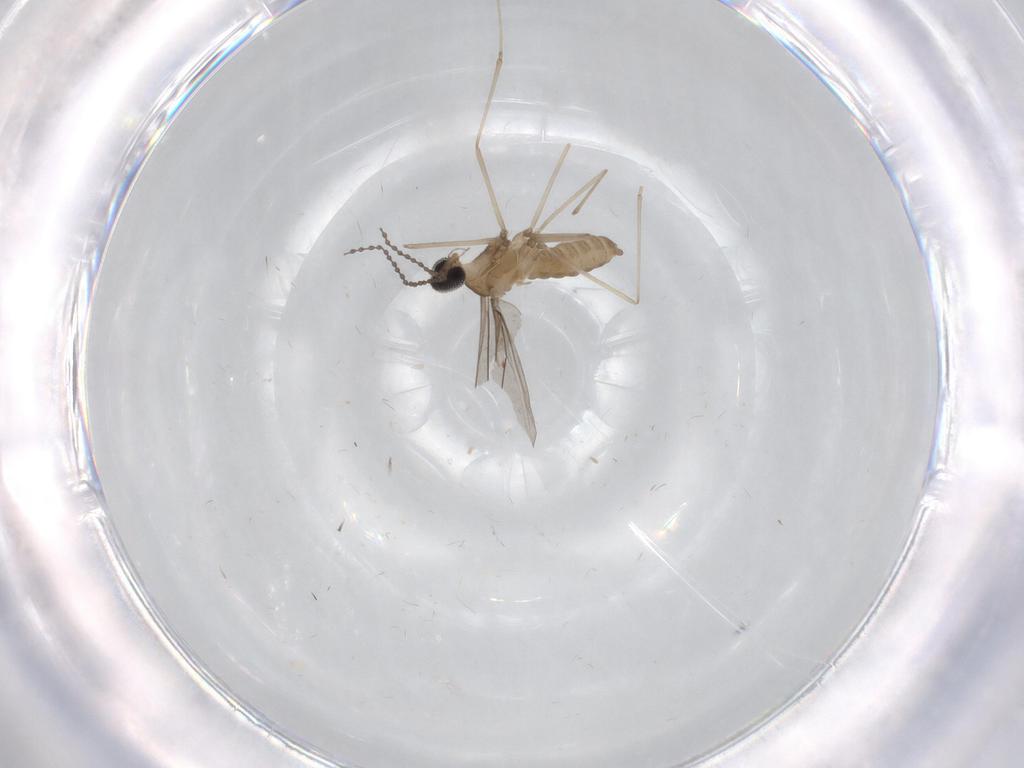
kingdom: Animalia
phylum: Arthropoda
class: Insecta
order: Diptera
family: Cecidomyiidae
